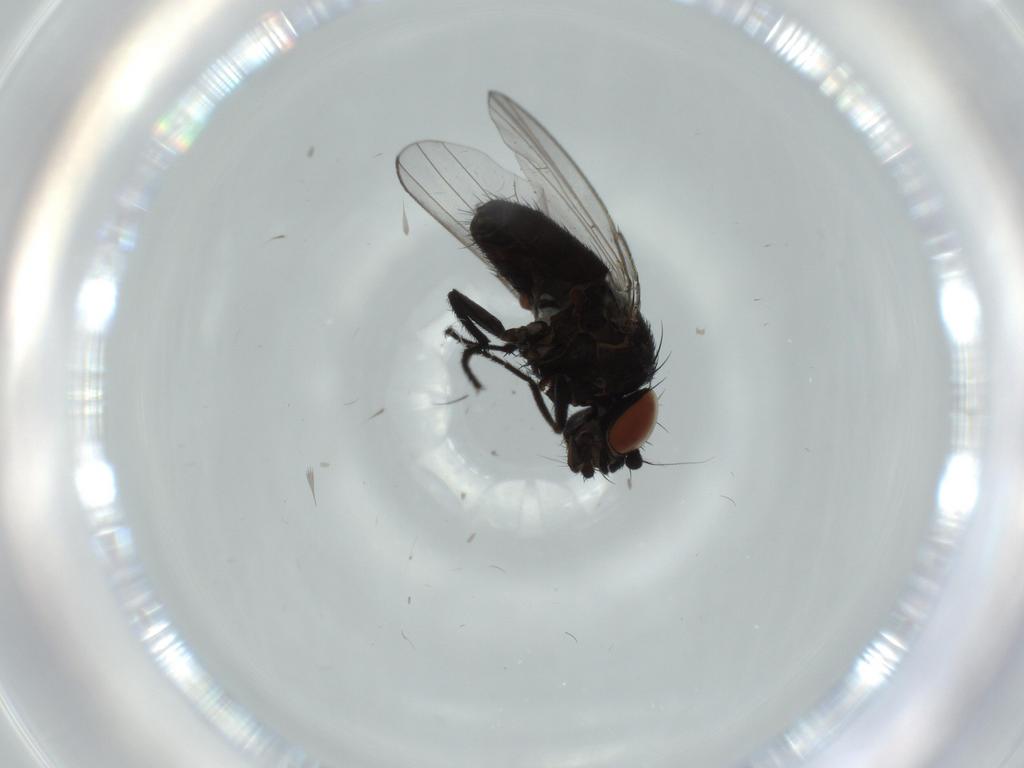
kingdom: Animalia
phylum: Arthropoda
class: Insecta
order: Diptera
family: Milichiidae
